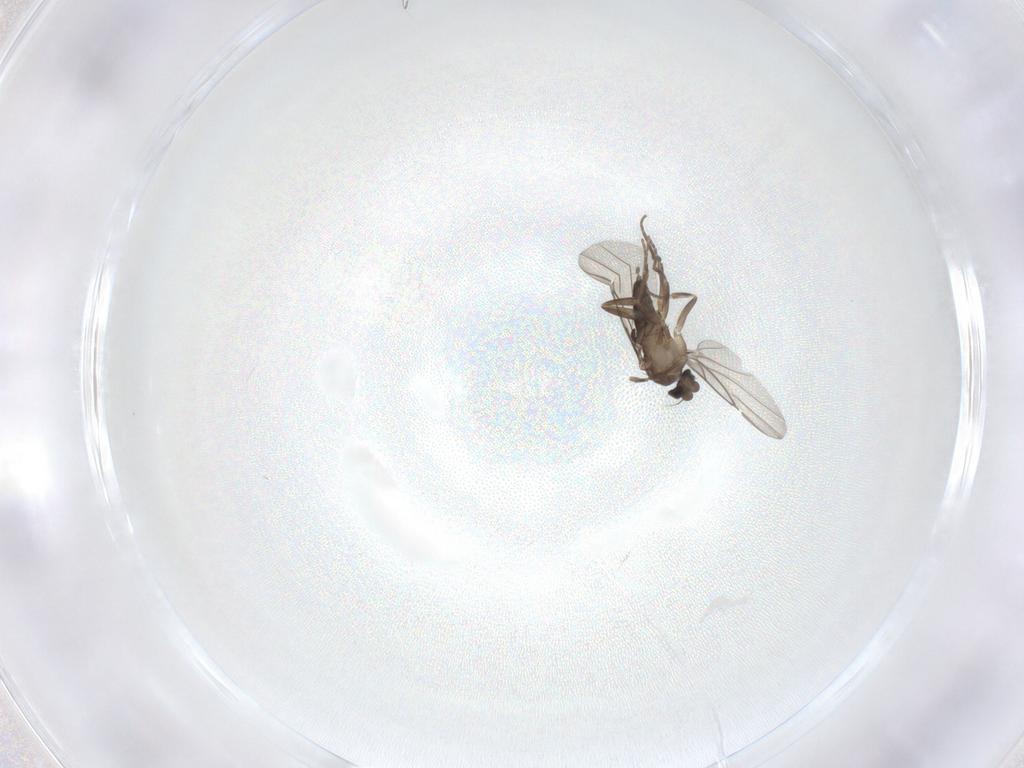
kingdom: Animalia
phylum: Arthropoda
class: Insecta
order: Diptera
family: Phoridae
